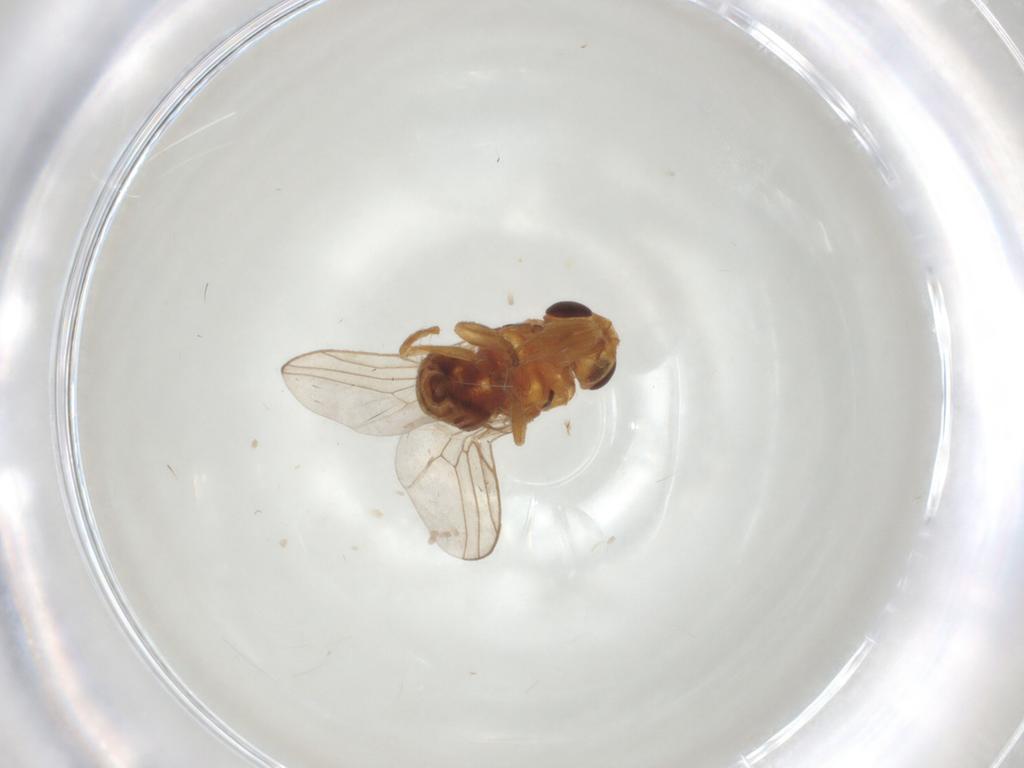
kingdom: Animalia
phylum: Arthropoda
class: Insecta
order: Diptera
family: Chloropidae
